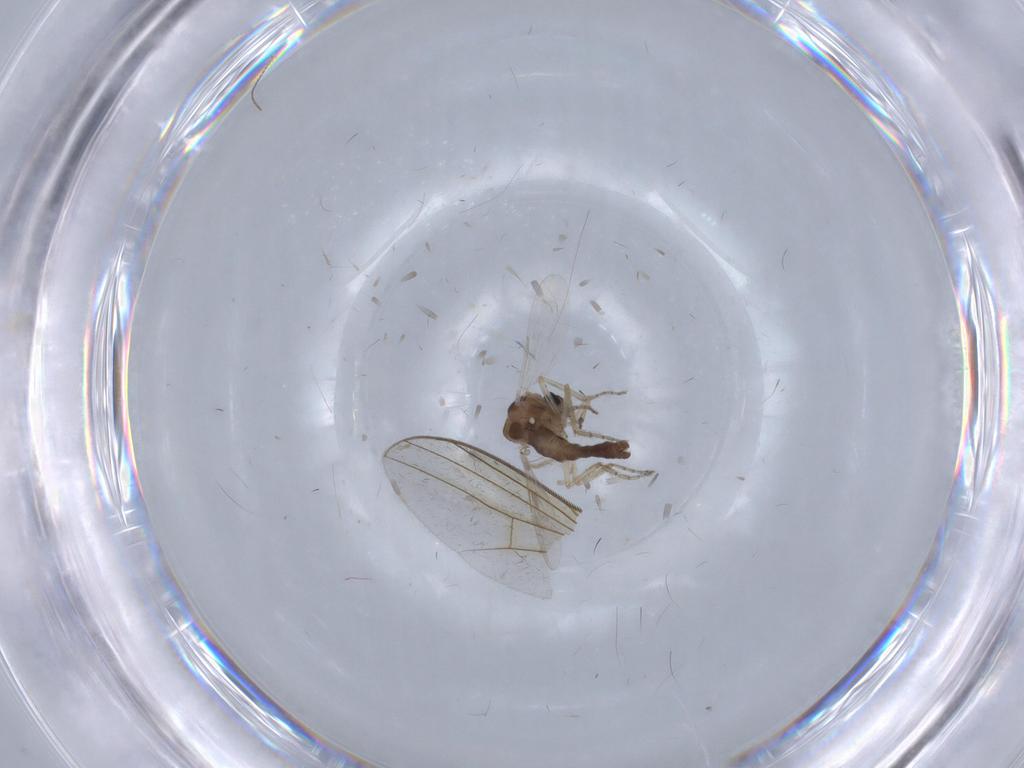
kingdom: Animalia
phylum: Arthropoda
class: Insecta
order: Diptera
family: Ceratopogonidae
